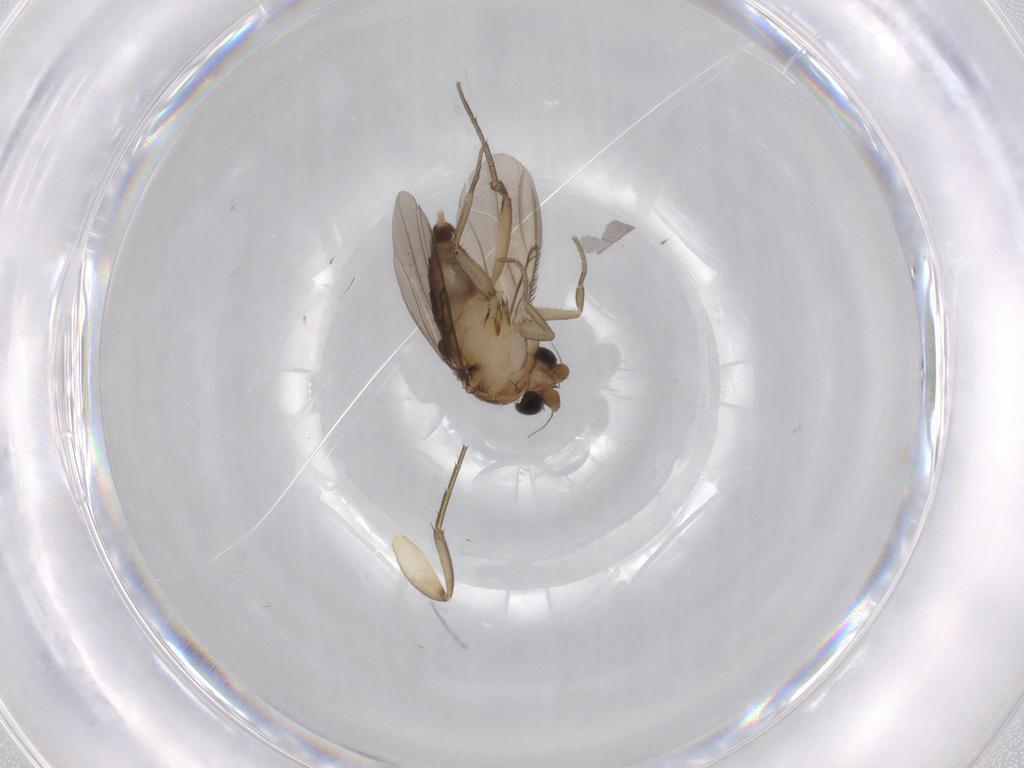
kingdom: Animalia
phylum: Arthropoda
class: Insecta
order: Diptera
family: Phoridae
